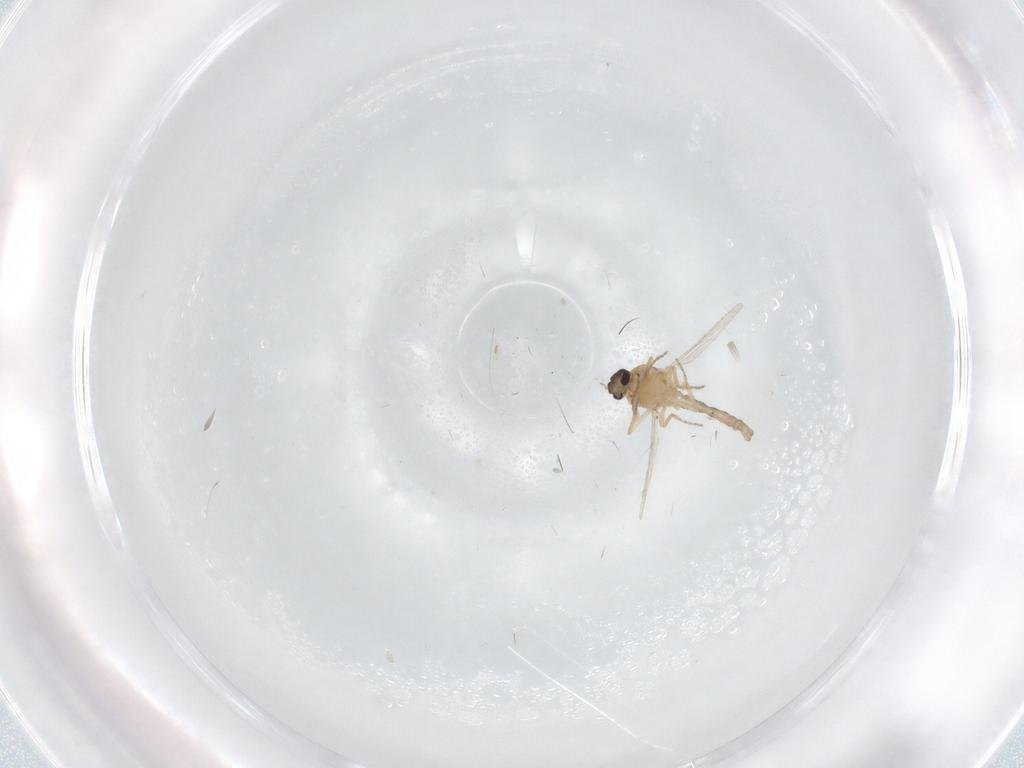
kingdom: Animalia
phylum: Arthropoda
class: Insecta
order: Diptera
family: Ceratopogonidae
